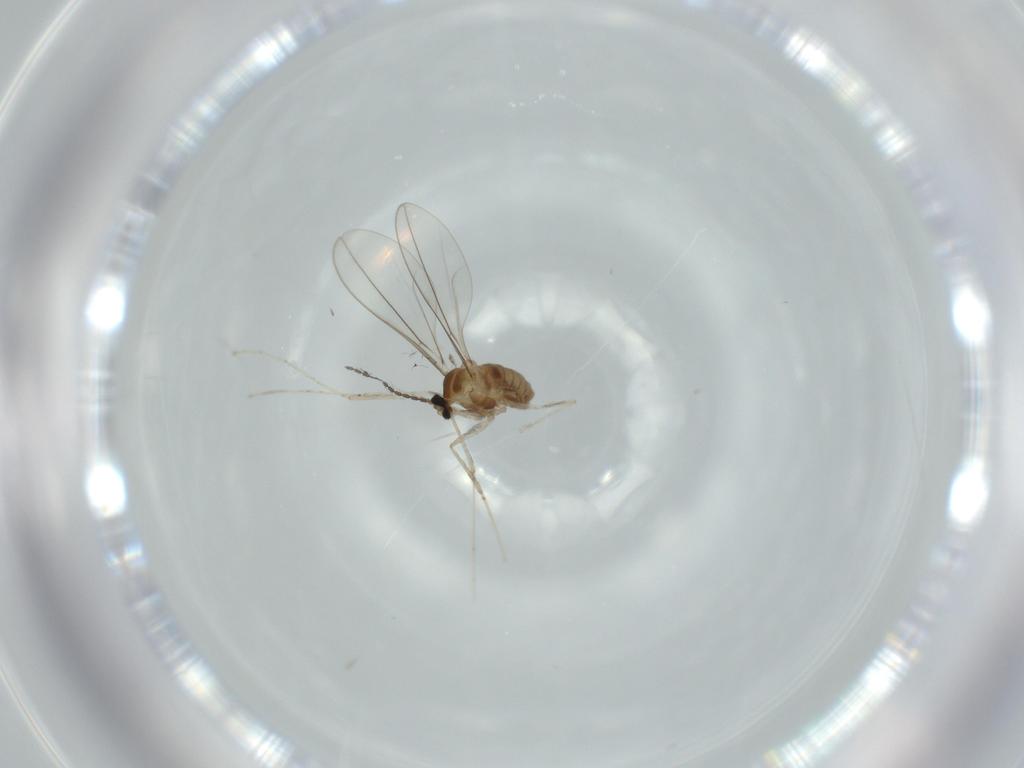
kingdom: Animalia
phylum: Arthropoda
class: Insecta
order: Diptera
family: Cecidomyiidae
